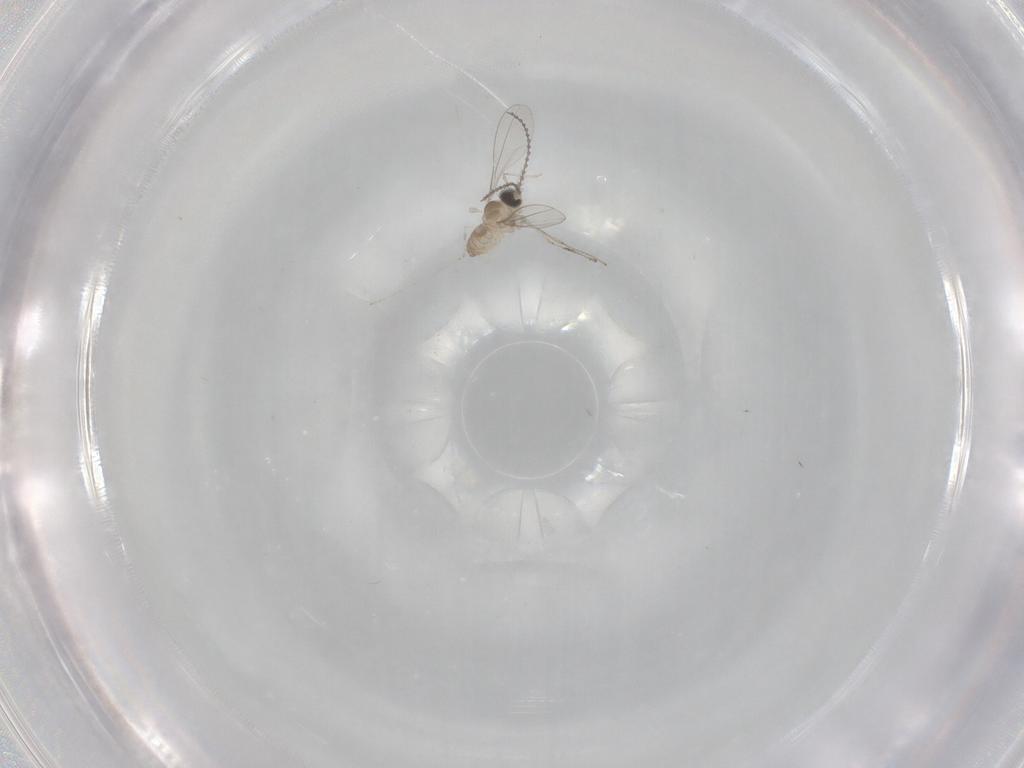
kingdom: Animalia
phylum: Arthropoda
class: Insecta
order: Diptera
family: Cecidomyiidae
